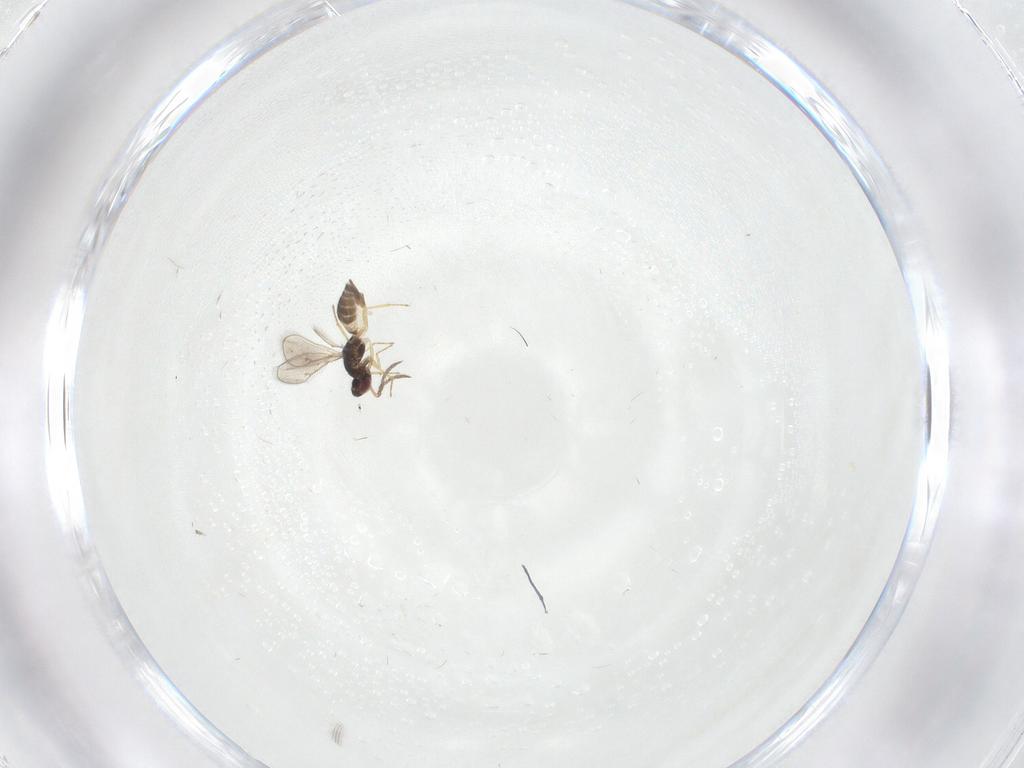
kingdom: Animalia
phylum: Arthropoda
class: Insecta
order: Hymenoptera
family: Eulophidae
